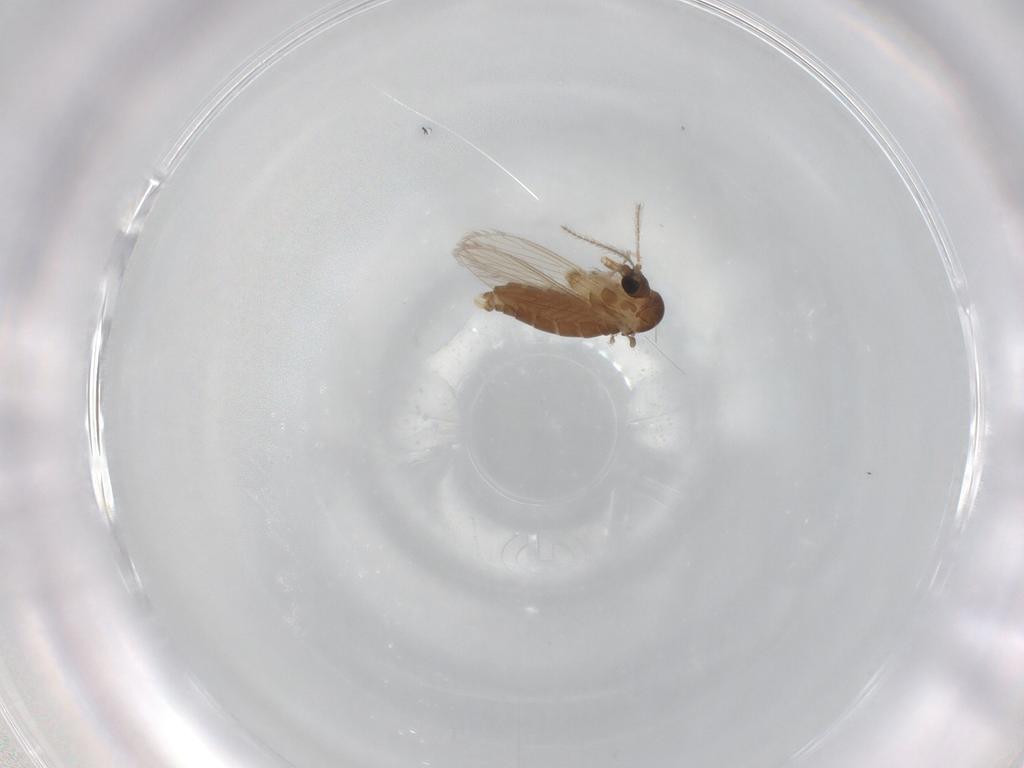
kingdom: Animalia
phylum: Arthropoda
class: Insecta
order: Diptera
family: Psychodidae
